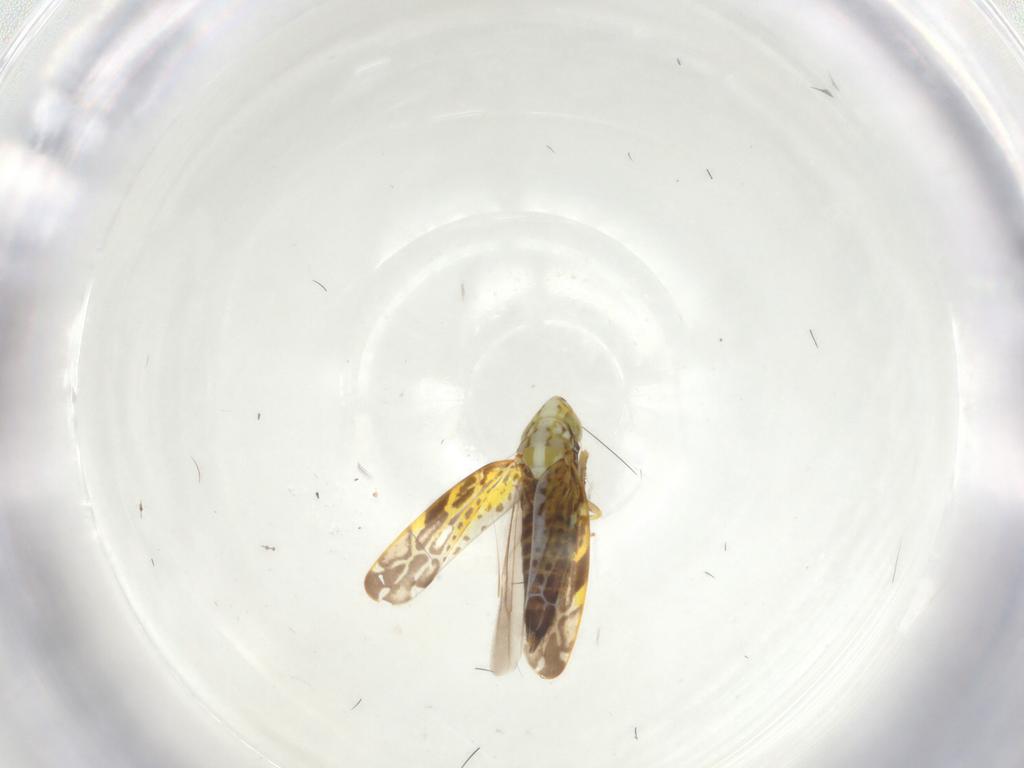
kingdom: Animalia
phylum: Arthropoda
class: Insecta
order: Hemiptera
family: Cicadellidae
